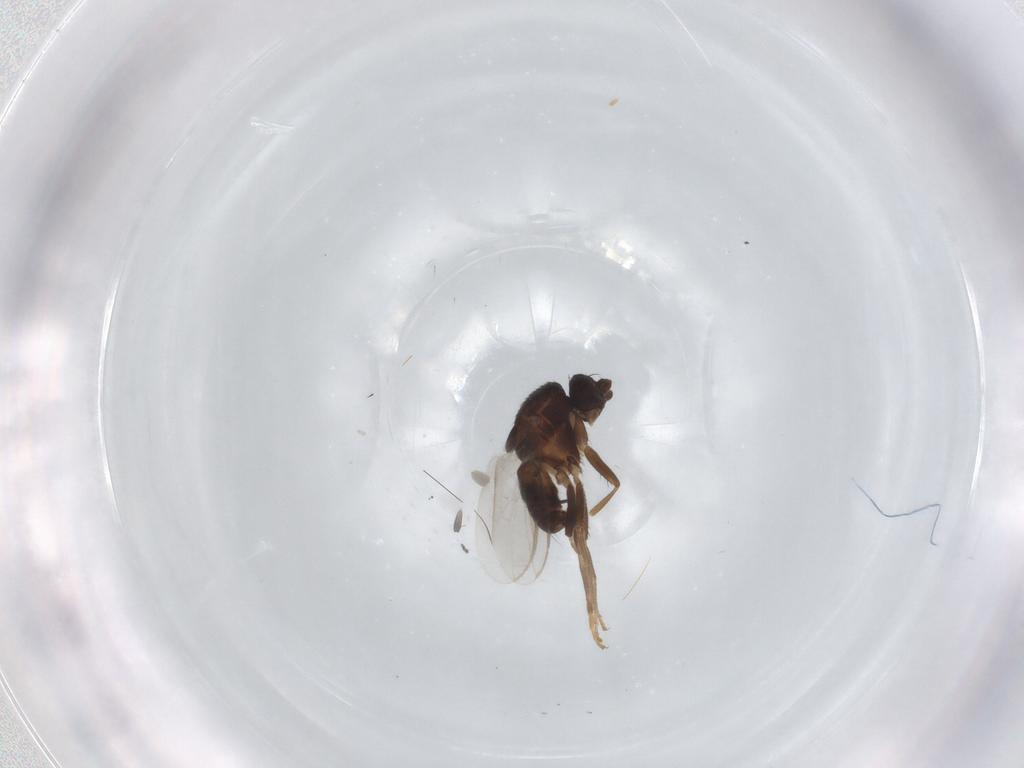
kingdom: Animalia
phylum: Arthropoda
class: Insecta
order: Diptera
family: Sphaeroceridae
